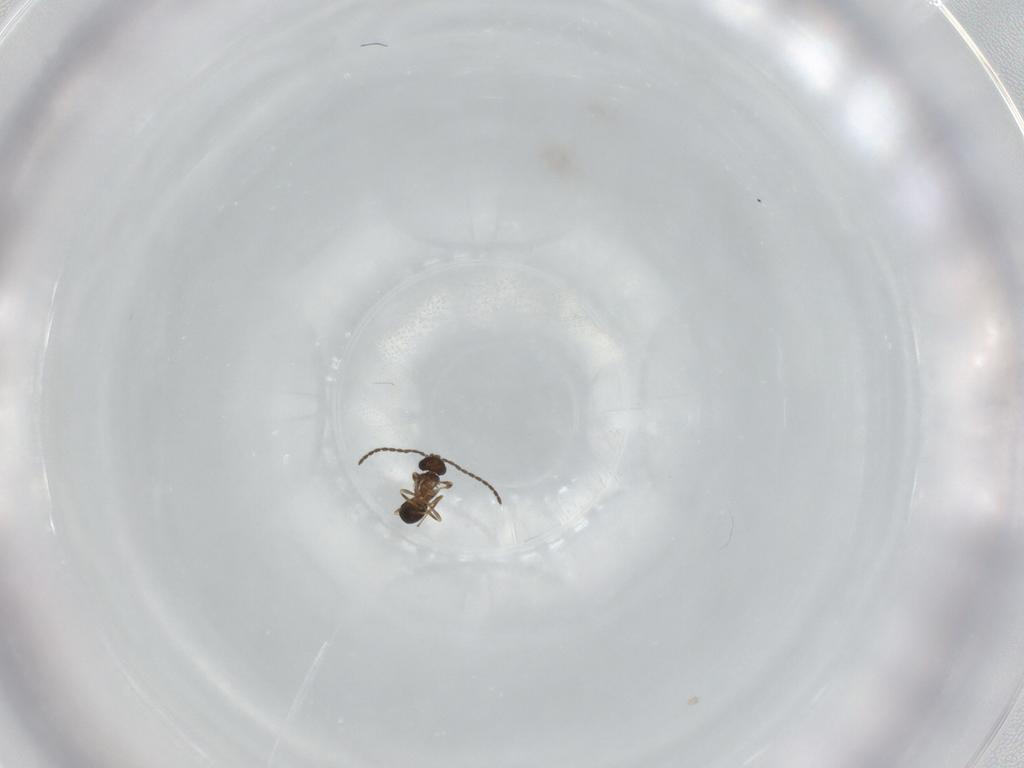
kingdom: Animalia
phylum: Arthropoda
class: Insecta
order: Hymenoptera
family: Scelionidae
